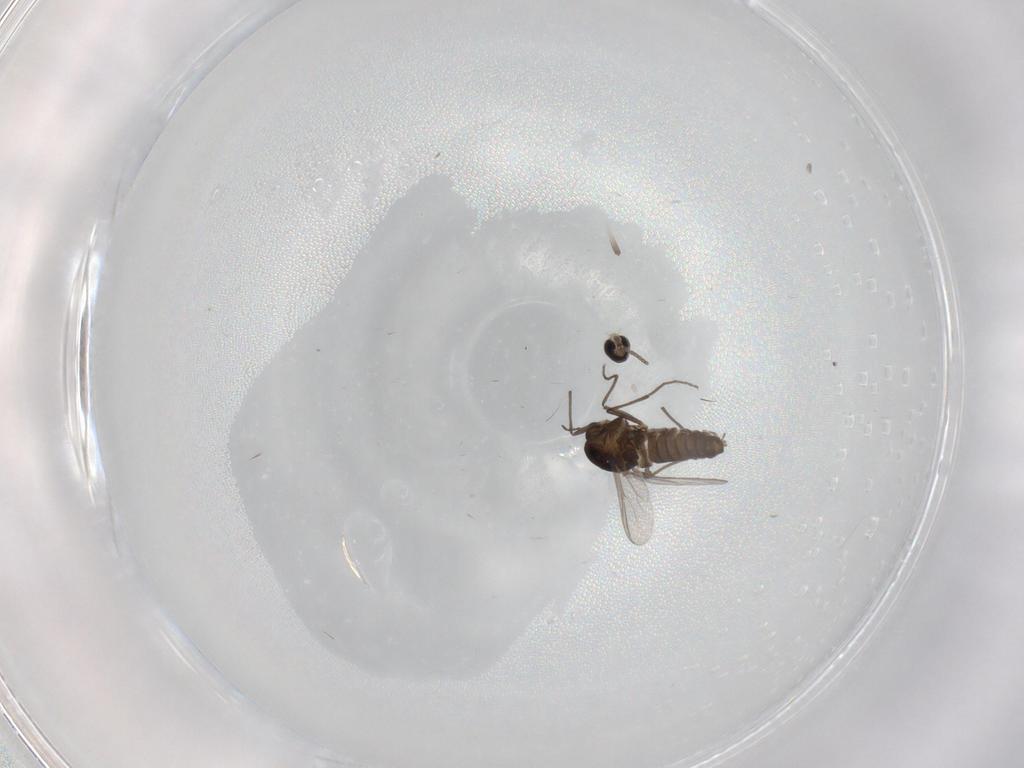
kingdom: Animalia
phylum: Arthropoda
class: Insecta
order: Diptera
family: Chironomidae
